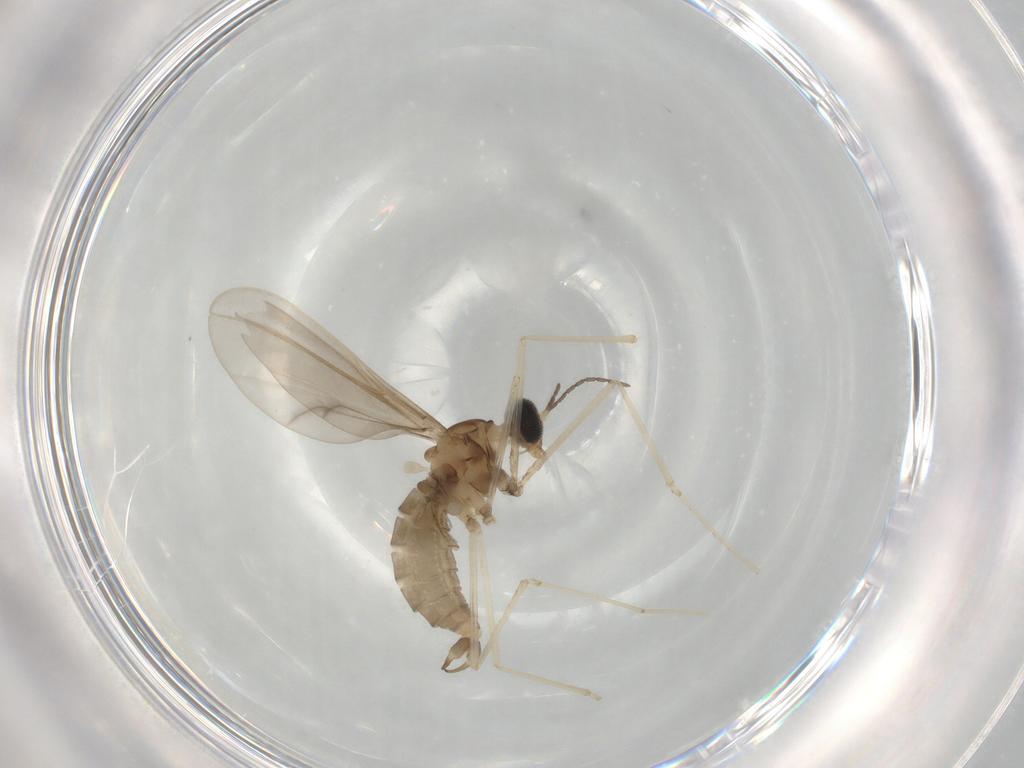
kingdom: Animalia
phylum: Arthropoda
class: Insecta
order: Diptera
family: Cecidomyiidae
